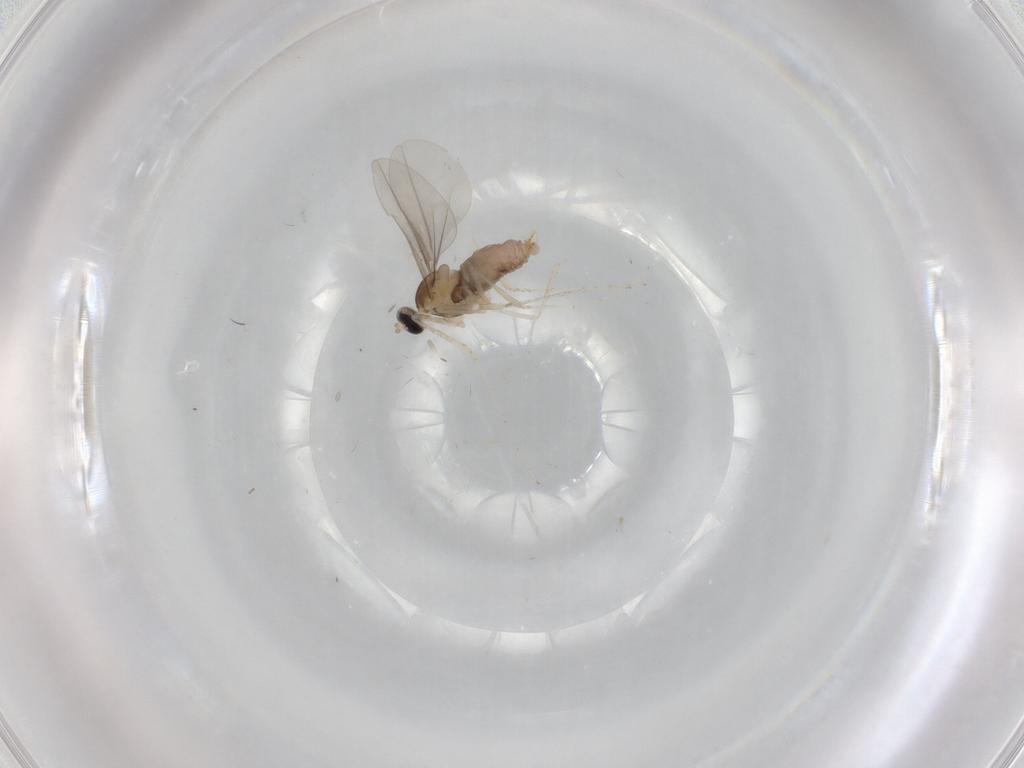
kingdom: Animalia
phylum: Arthropoda
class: Insecta
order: Diptera
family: Cecidomyiidae
